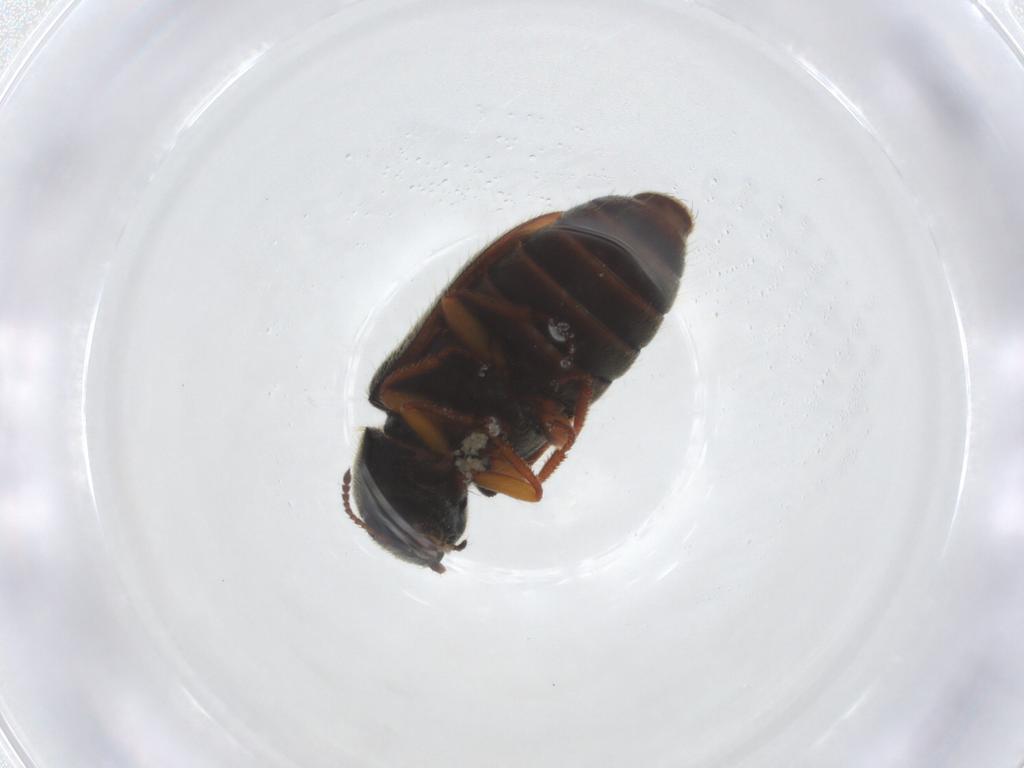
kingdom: Animalia
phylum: Arthropoda
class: Insecta
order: Coleoptera
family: Melyridae
